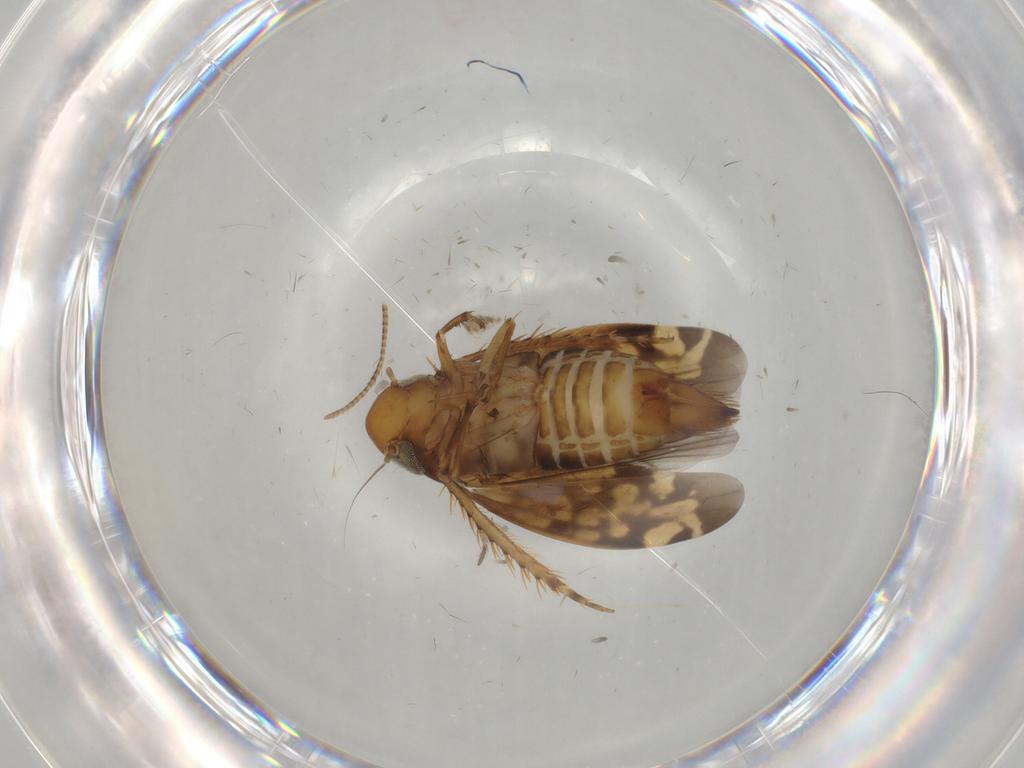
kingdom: Animalia
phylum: Arthropoda
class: Insecta
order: Hemiptera
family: Cicadellidae
